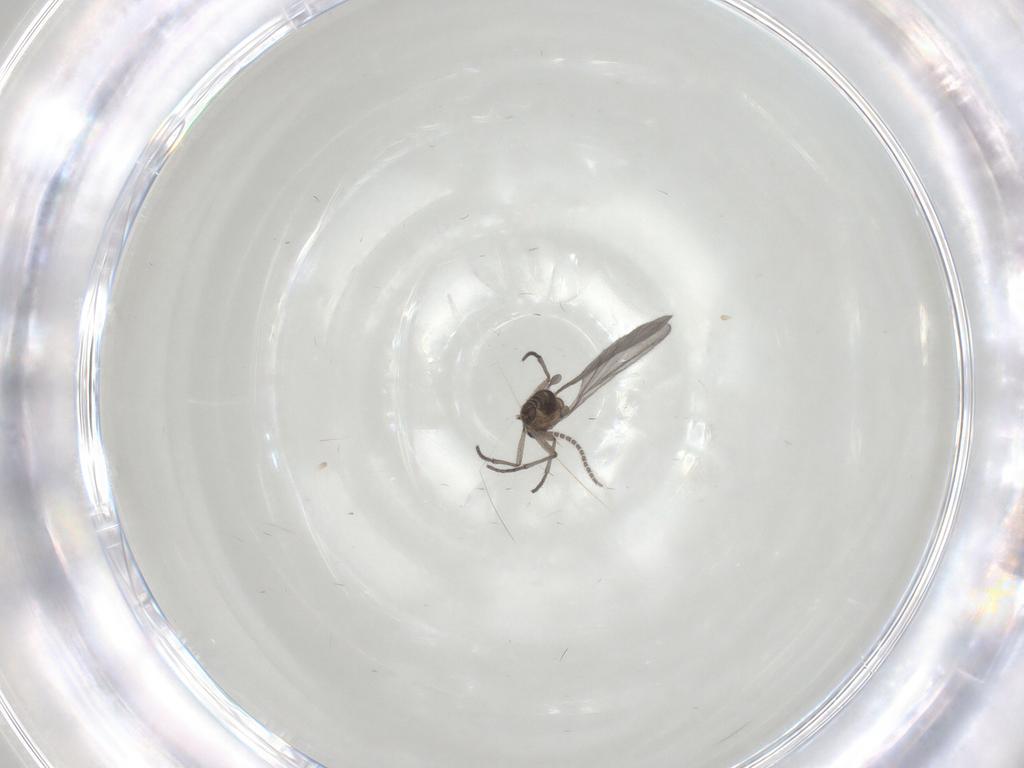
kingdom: Animalia
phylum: Arthropoda
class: Insecta
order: Diptera
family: Sciaridae
